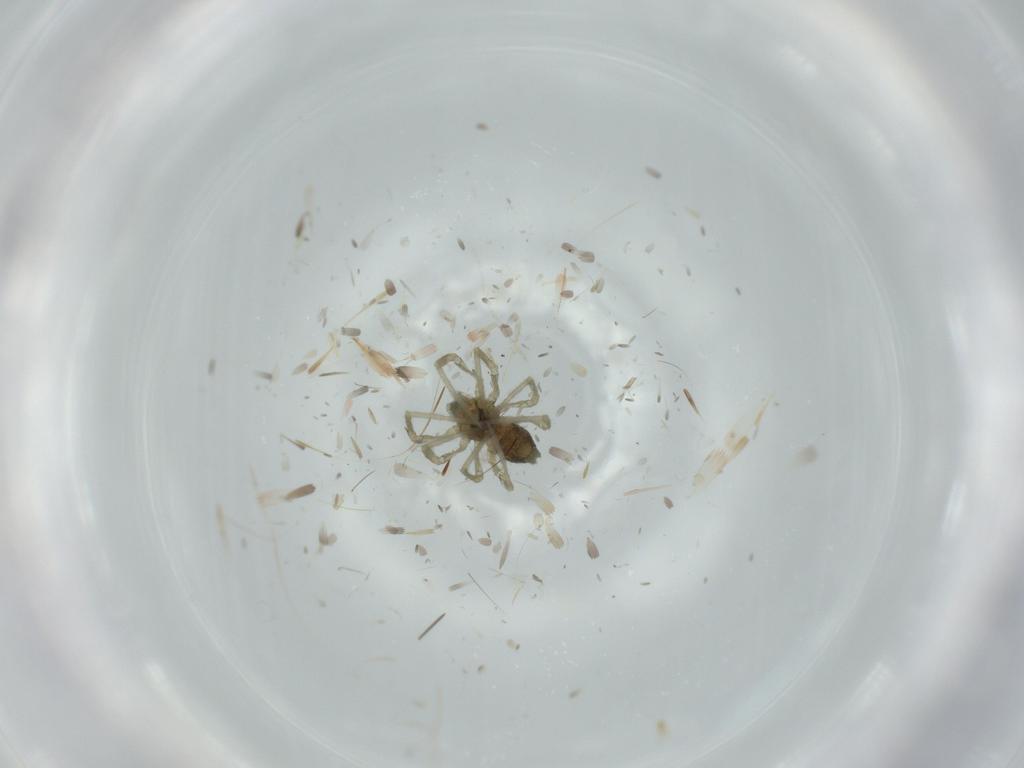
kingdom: Animalia
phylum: Arthropoda
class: Arachnida
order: Araneae
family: Linyphiidae
